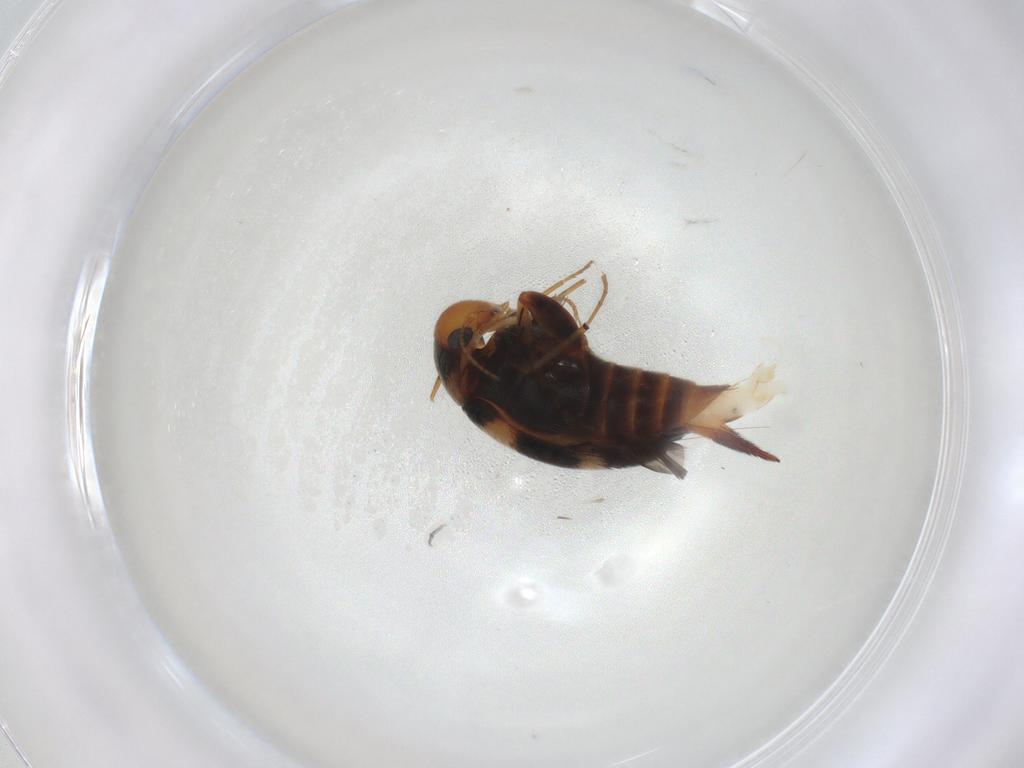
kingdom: Animalia
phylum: Arthropoda
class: Insecta
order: Coleoptera
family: Mordellidae
